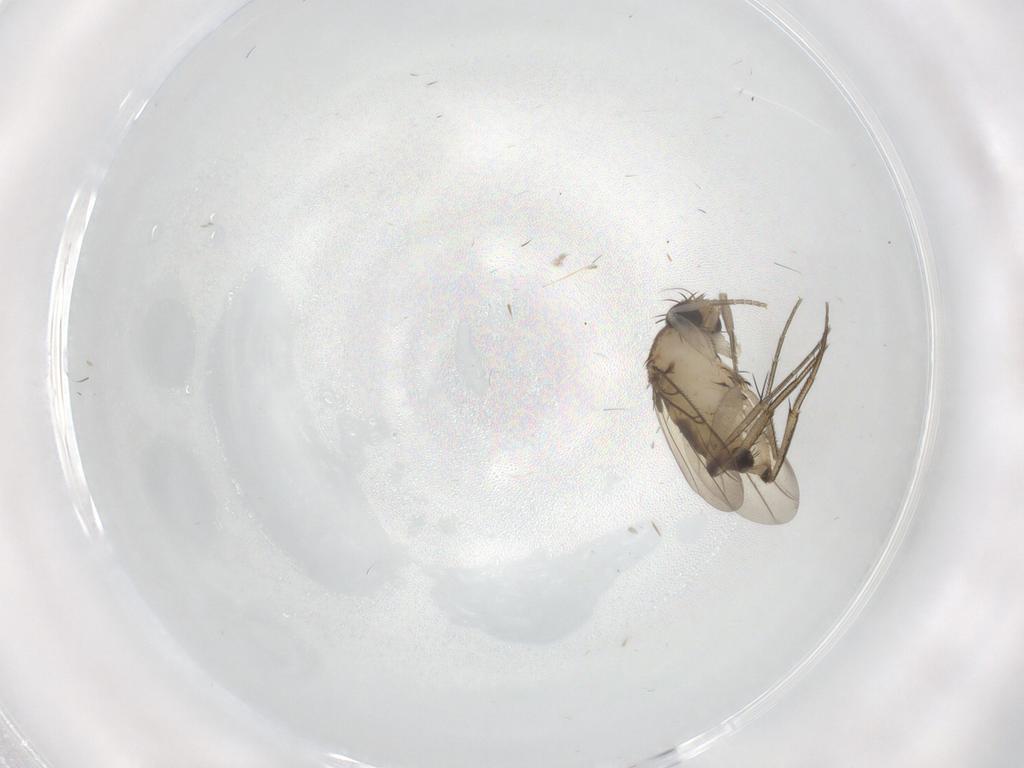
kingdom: Animalia
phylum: Arthropoda
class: Insecta
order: Diptera
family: Phoridae
